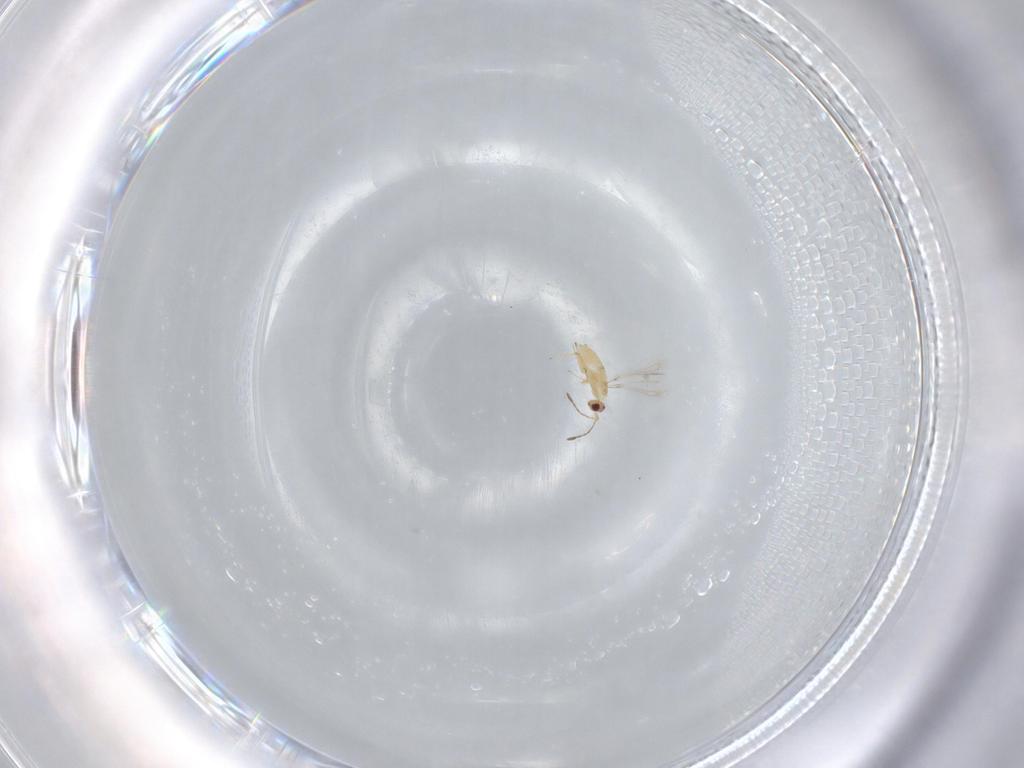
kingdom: Animalia
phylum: Arthropoda
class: Insecta
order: Hymenoptera
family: Mymaridae
